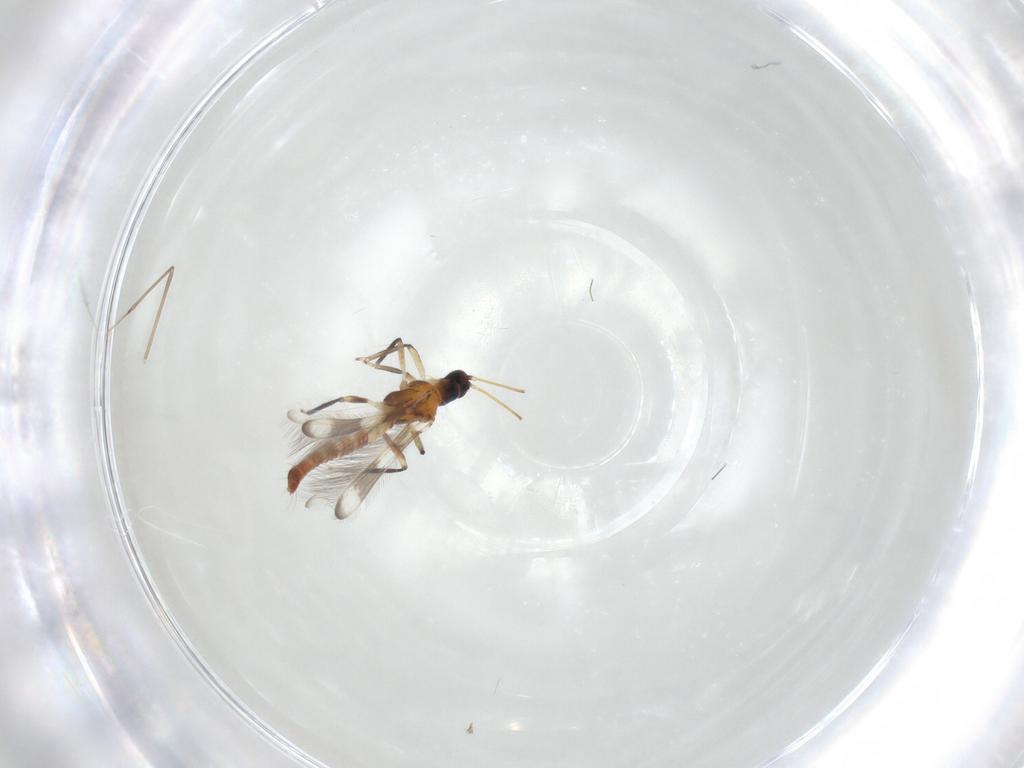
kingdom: Animalia
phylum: Arthropoda
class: Insecta
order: Thysanoptera
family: Aeolothripidae
